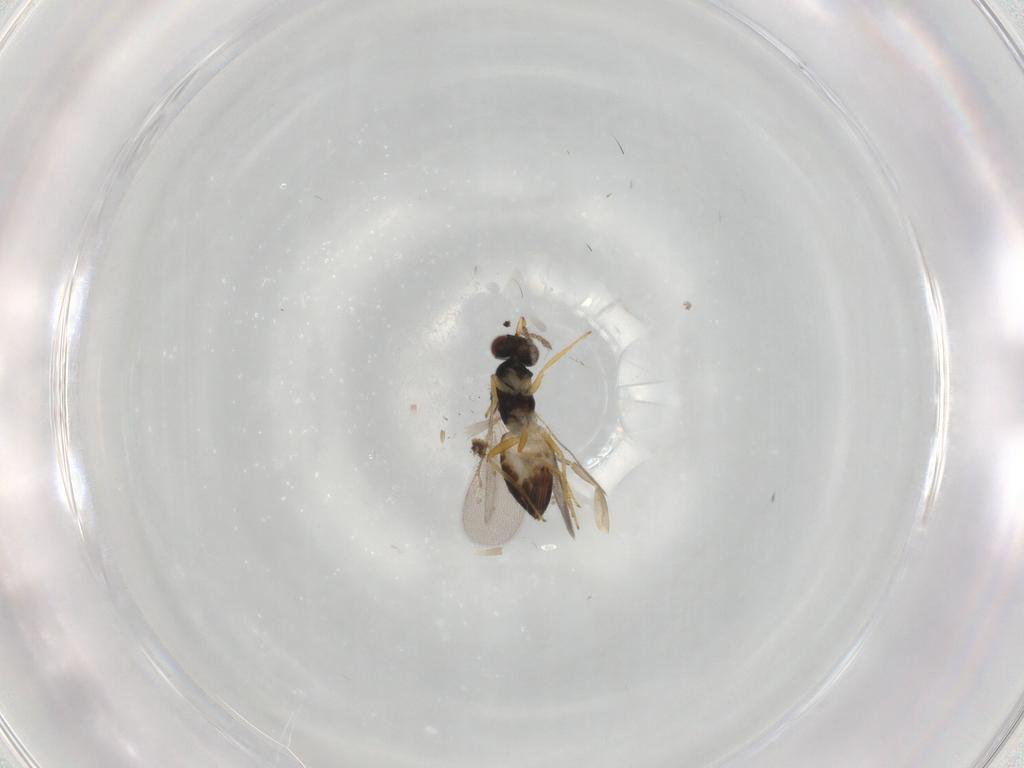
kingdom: Animalia
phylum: Arthropoda
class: Insecta
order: Hymenoptera
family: Eulophidae
